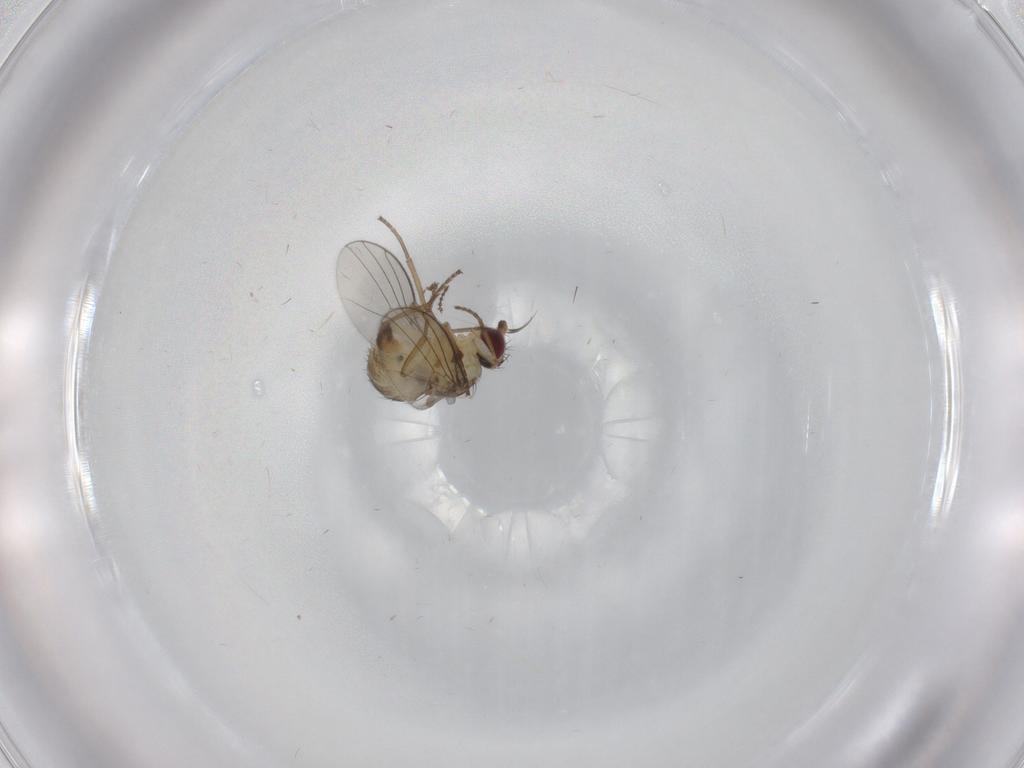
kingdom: Animalia
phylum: Arthropoda
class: Insecta
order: Diptera
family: Agromyzidae
